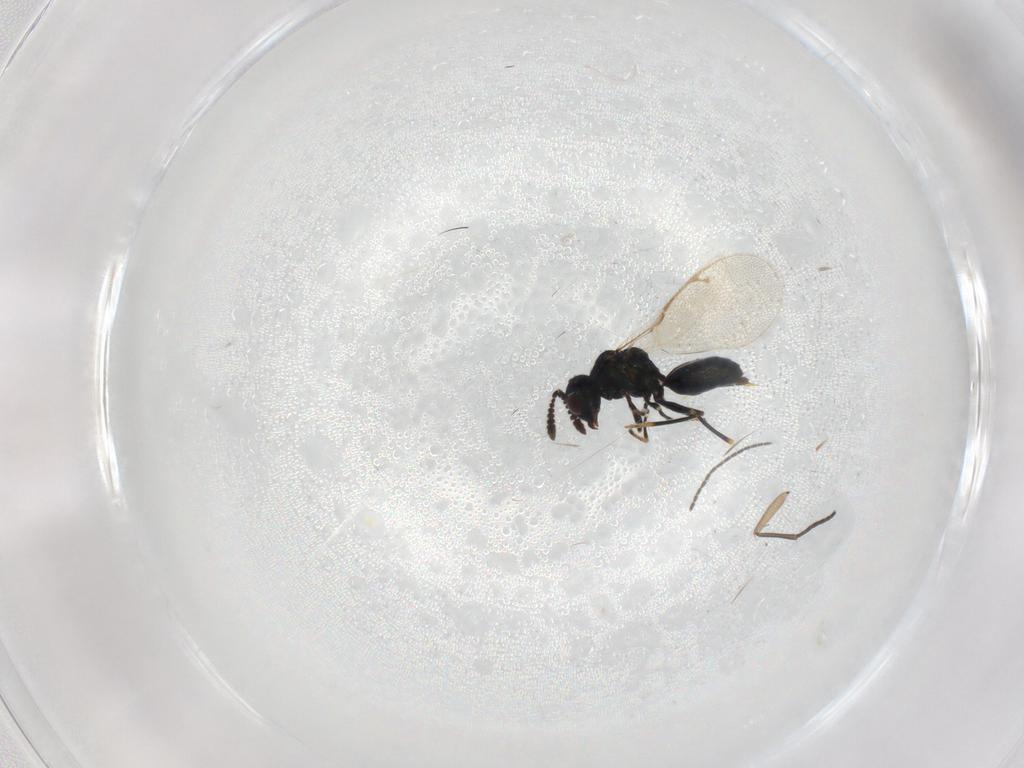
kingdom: Animalia
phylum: Arthropoda
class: Insecta
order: Hymenoptera
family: Pteromalidae
